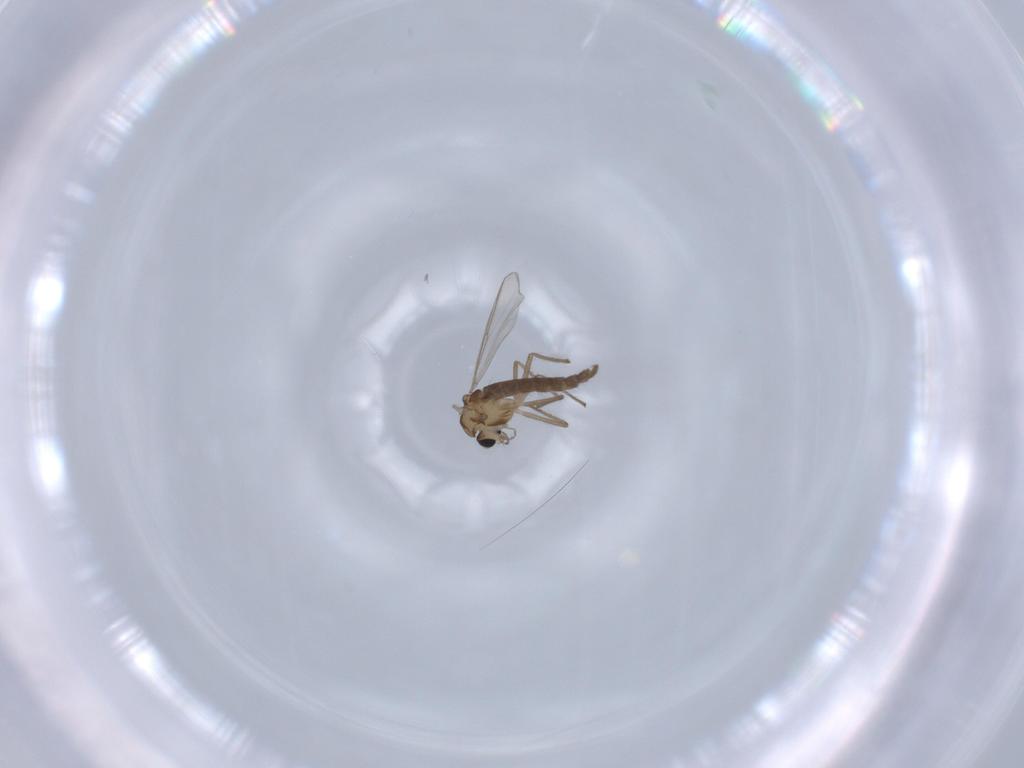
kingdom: Animalia
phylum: Arthropoda
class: Insecta
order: Diptera
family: Chironomidae
